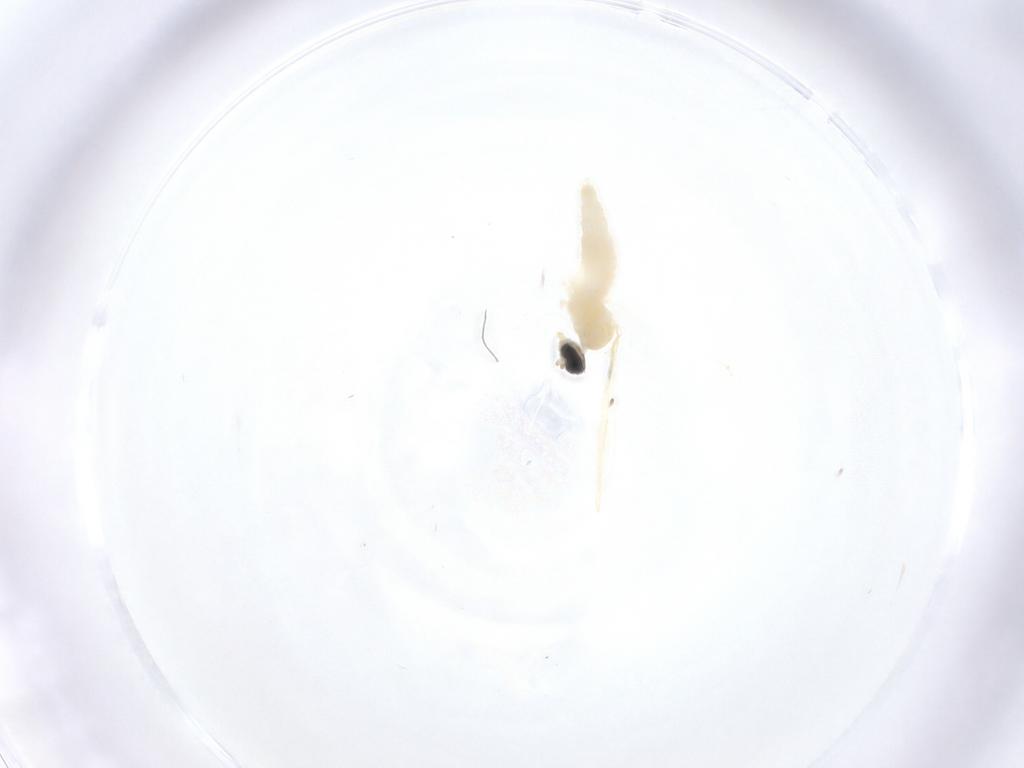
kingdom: Animalia
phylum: Arthropoda
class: Insecta
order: Diptera
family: Cecidomyiidae
